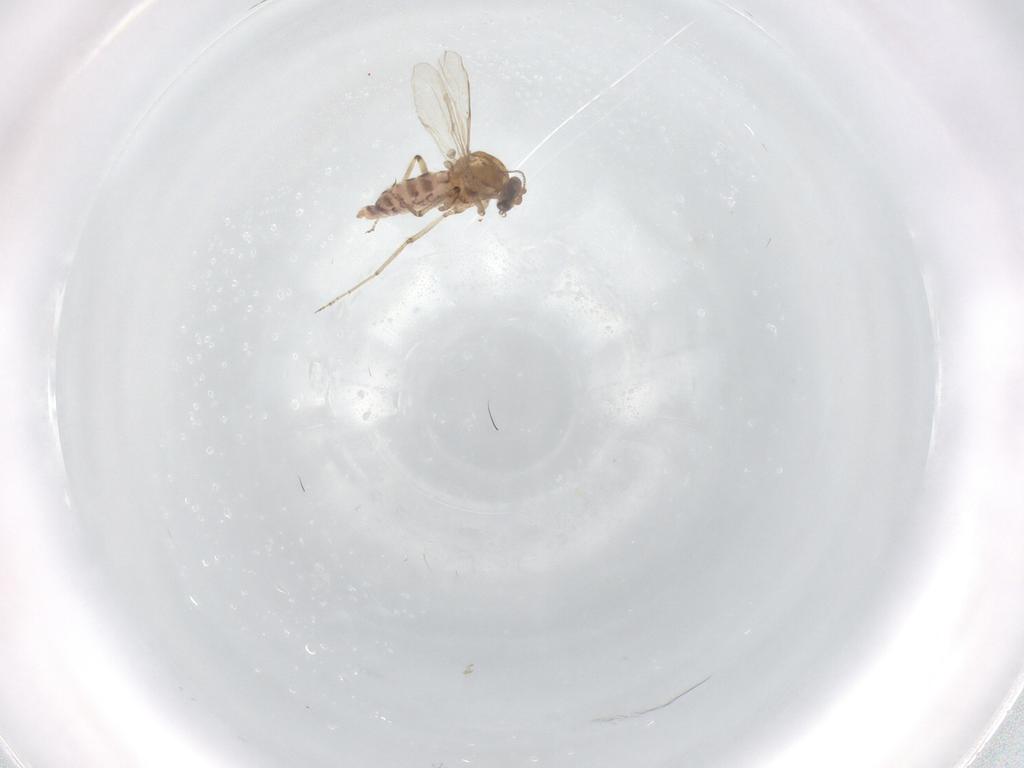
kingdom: Animalia
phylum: Arthropoda
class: Insecta
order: Diptera
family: Ceratopogonidae
